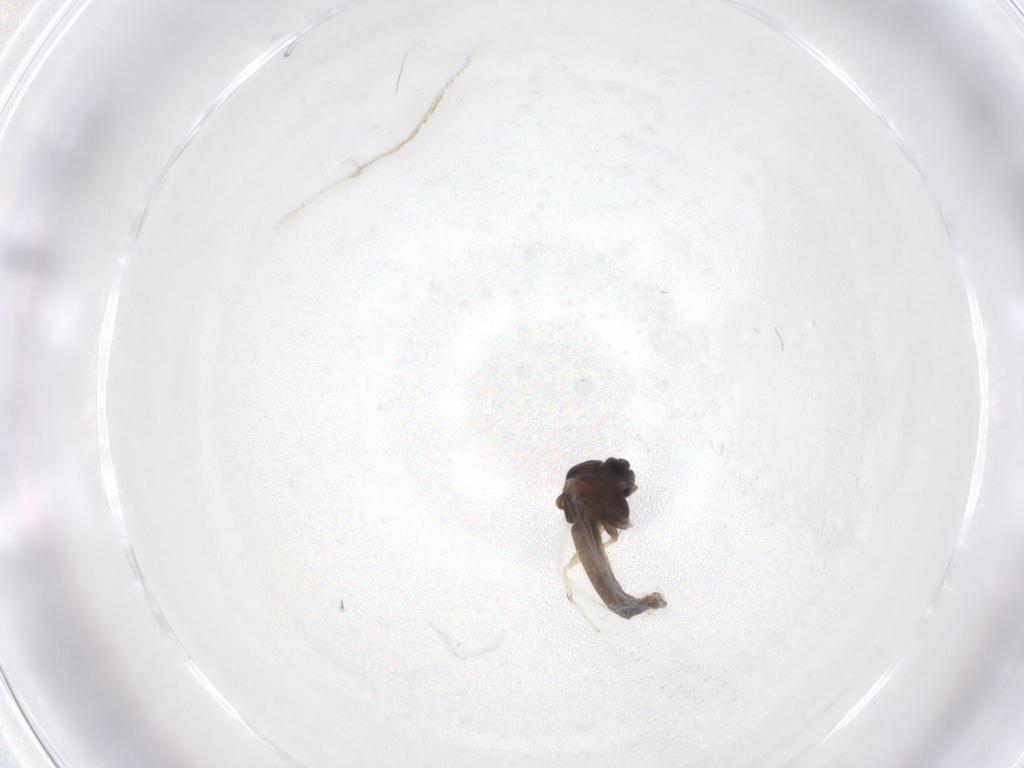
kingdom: Animalia
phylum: Arthropoda
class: Insecta
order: Diptera
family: Chironomidae
